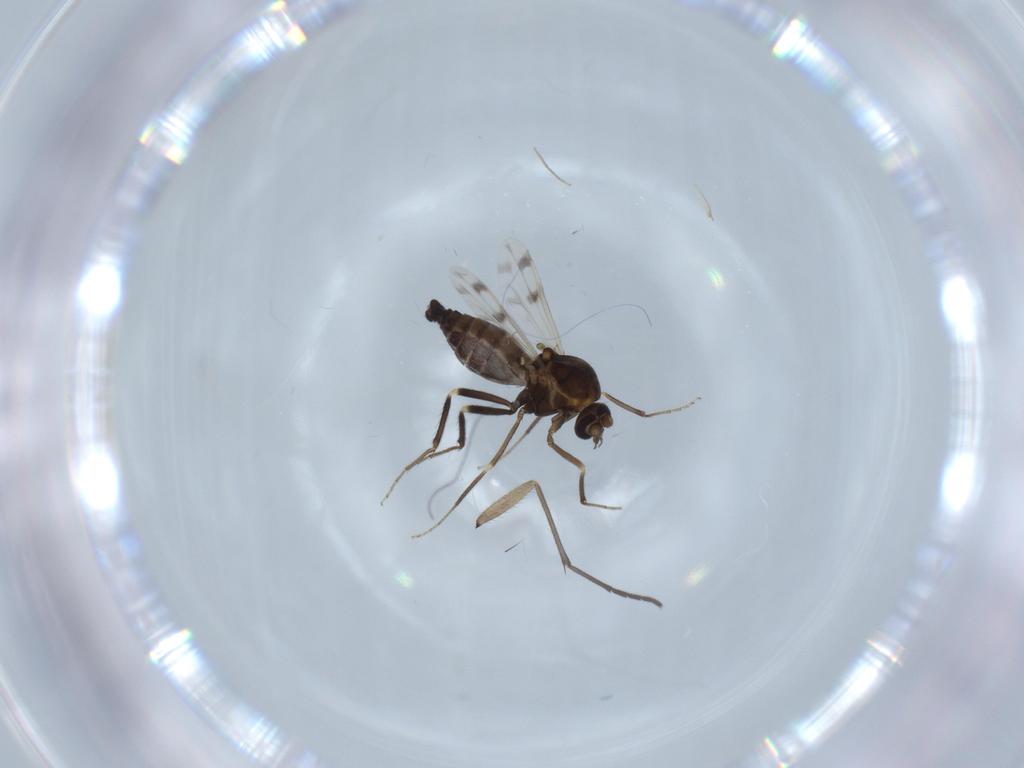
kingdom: Animalia
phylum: Arthropoda
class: Insecta
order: Diptera
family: Ceratopogonidae
